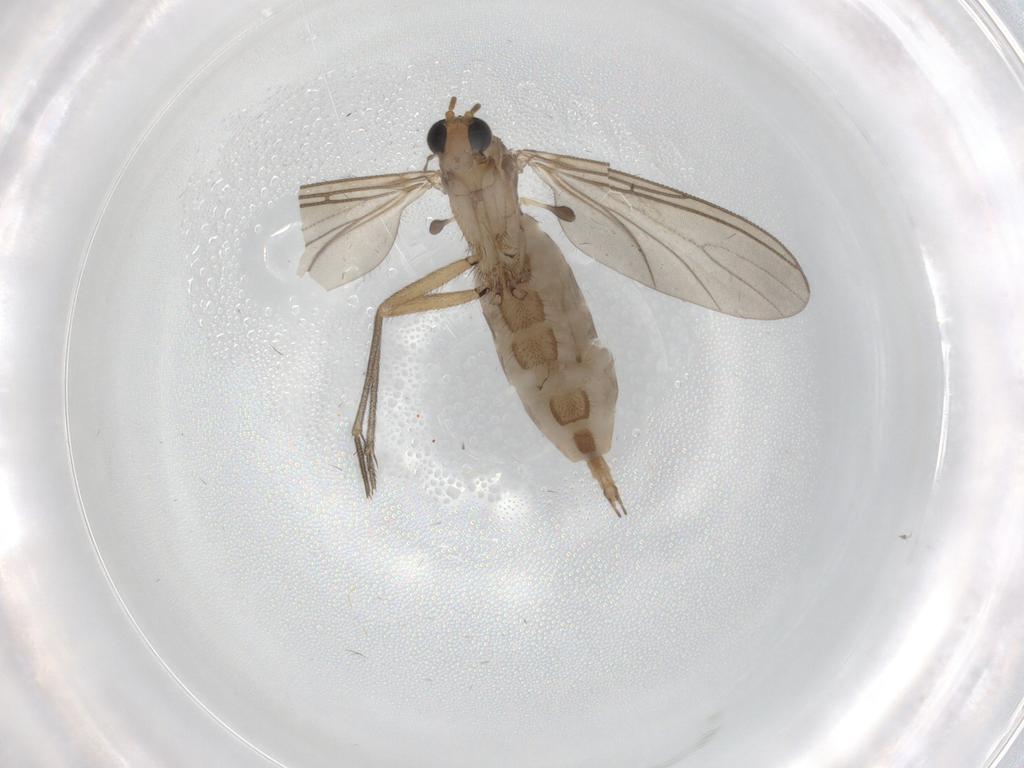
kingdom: Animalia
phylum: Arthropoda
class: Insecta
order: Diptera
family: Sciaridae
